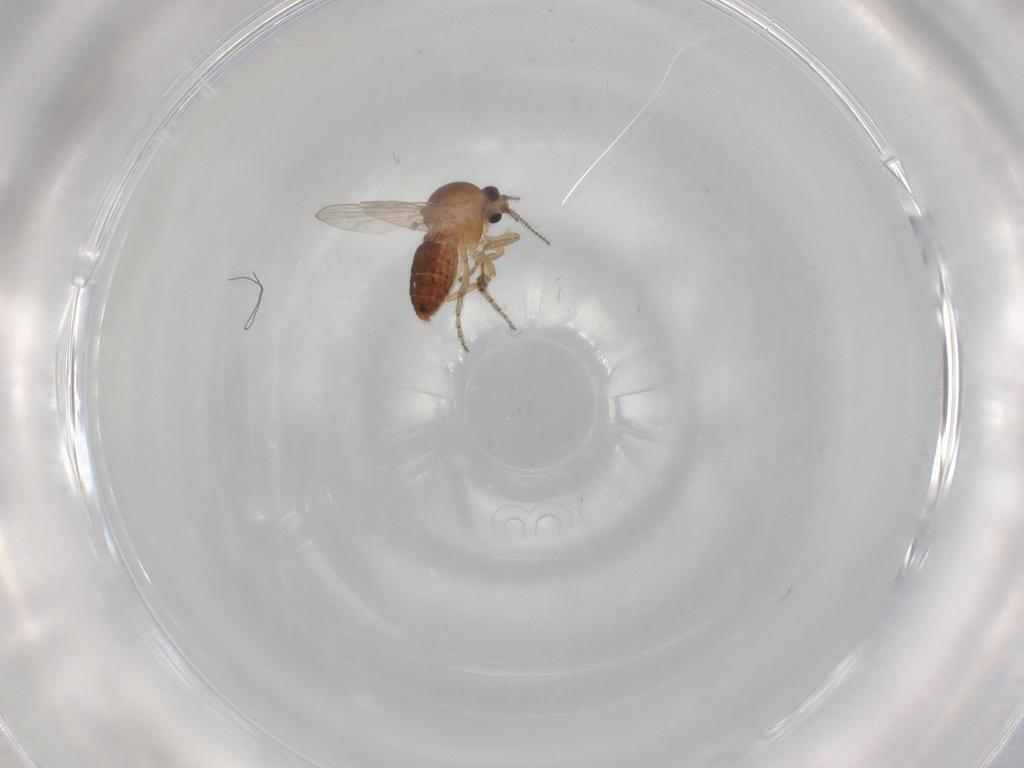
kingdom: Animalia
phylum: Arthropoda
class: Insecta
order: Diptera
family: Ceratopogonidae
